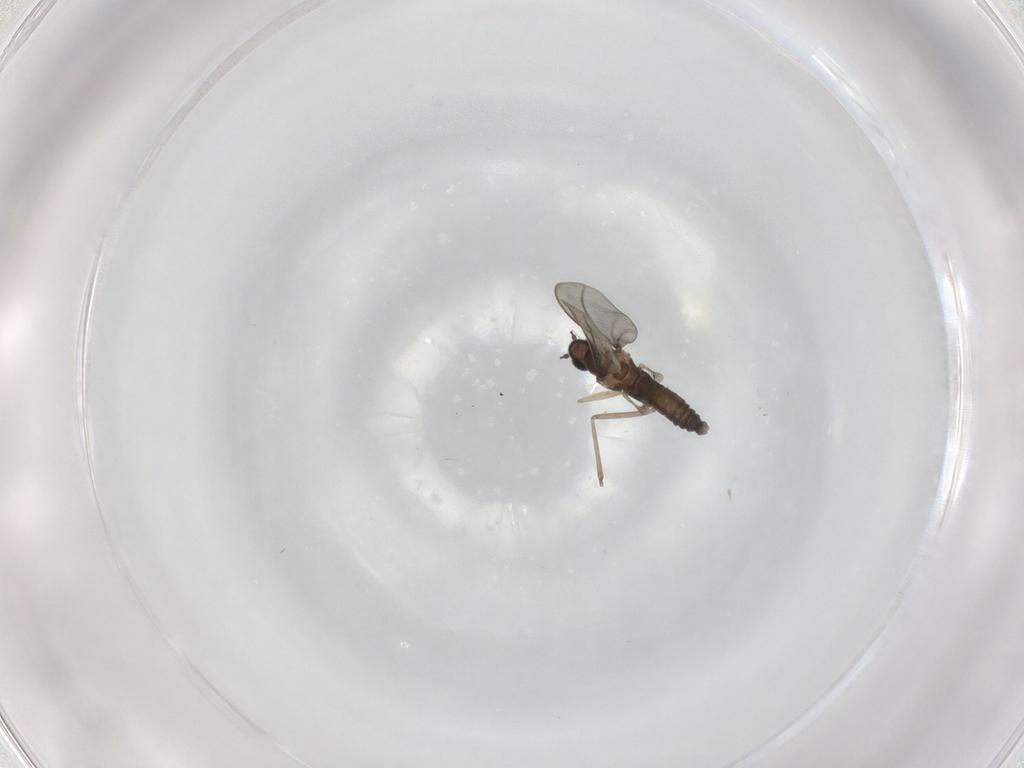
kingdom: Animalia
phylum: Arthropoda
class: Insecta
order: Diptera
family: Cecidomyiidae
